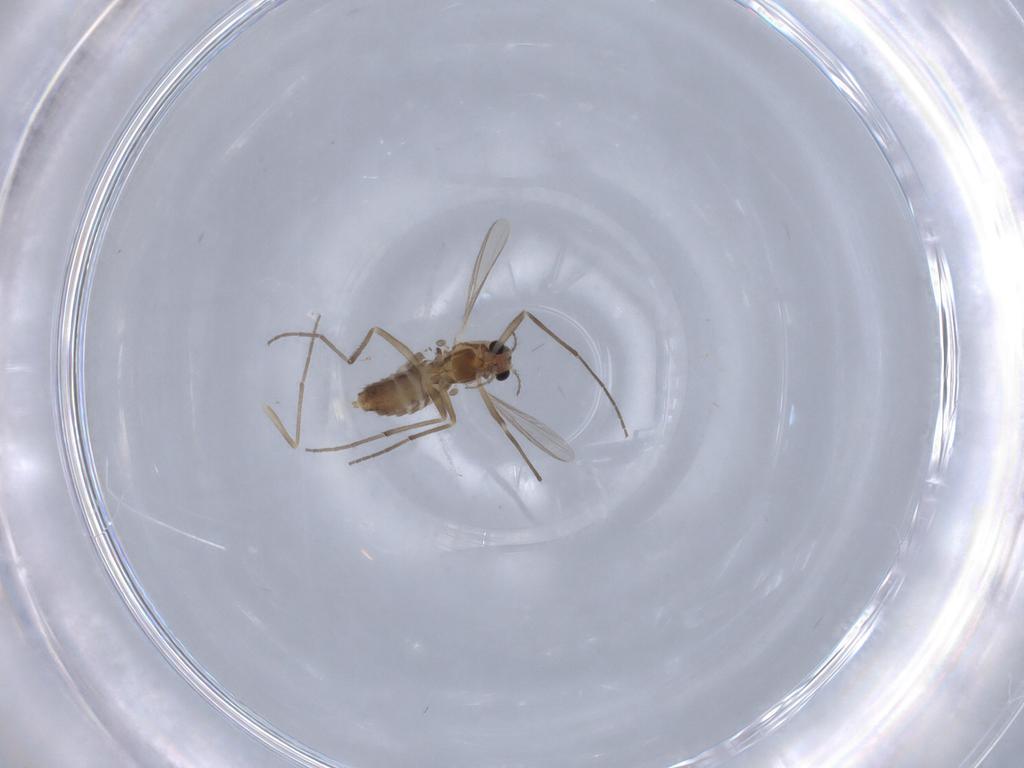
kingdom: Animalia
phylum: Arthropoda
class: Insecta
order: Diptera
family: Chironomidae
